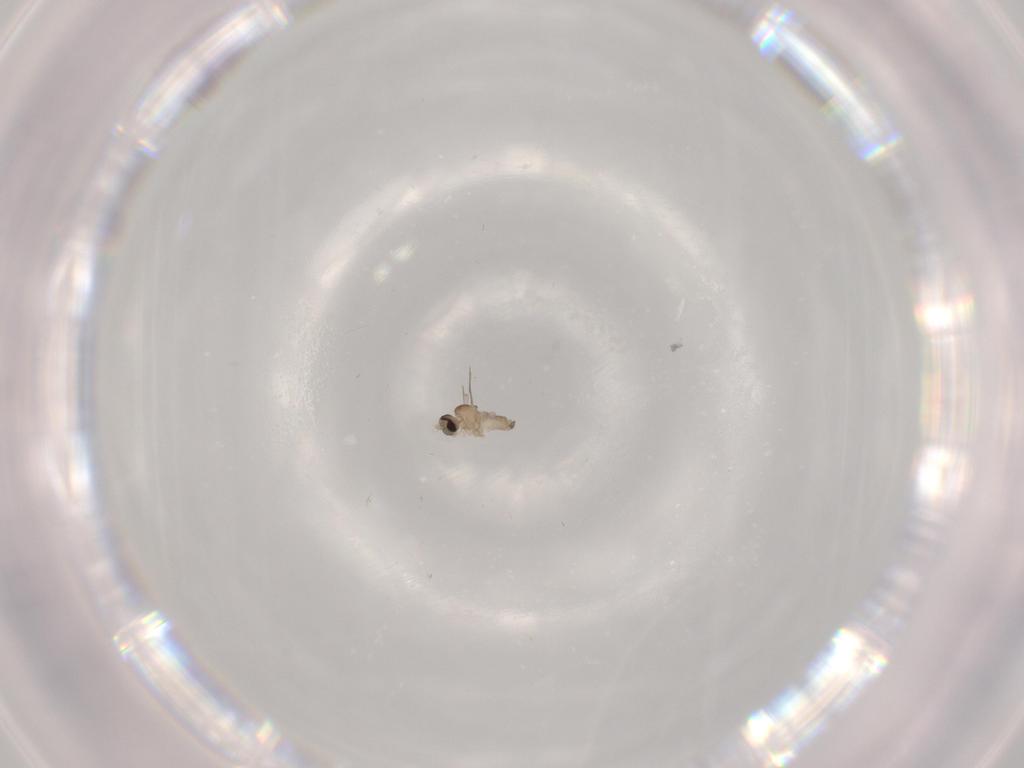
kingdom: Animalia
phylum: Arthropoda
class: Insecta
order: Diptera
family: Cecidomyiidae
